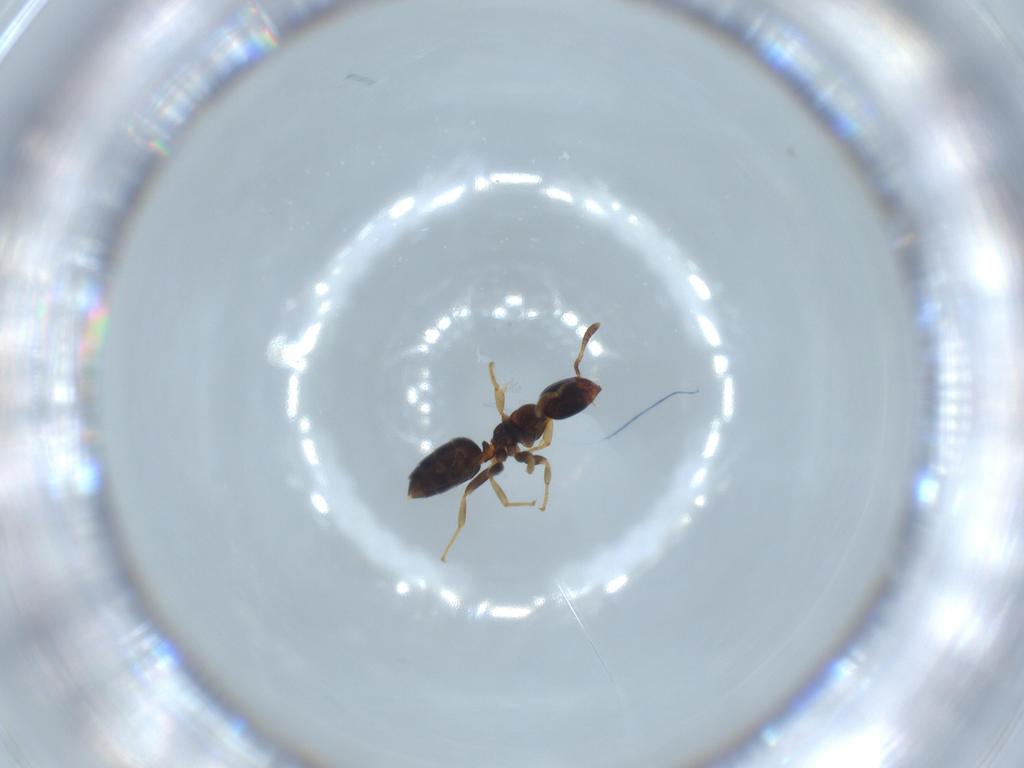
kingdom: Animalia
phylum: Arthropoda
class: Insecta
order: Hymenoptera
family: Formicidae
